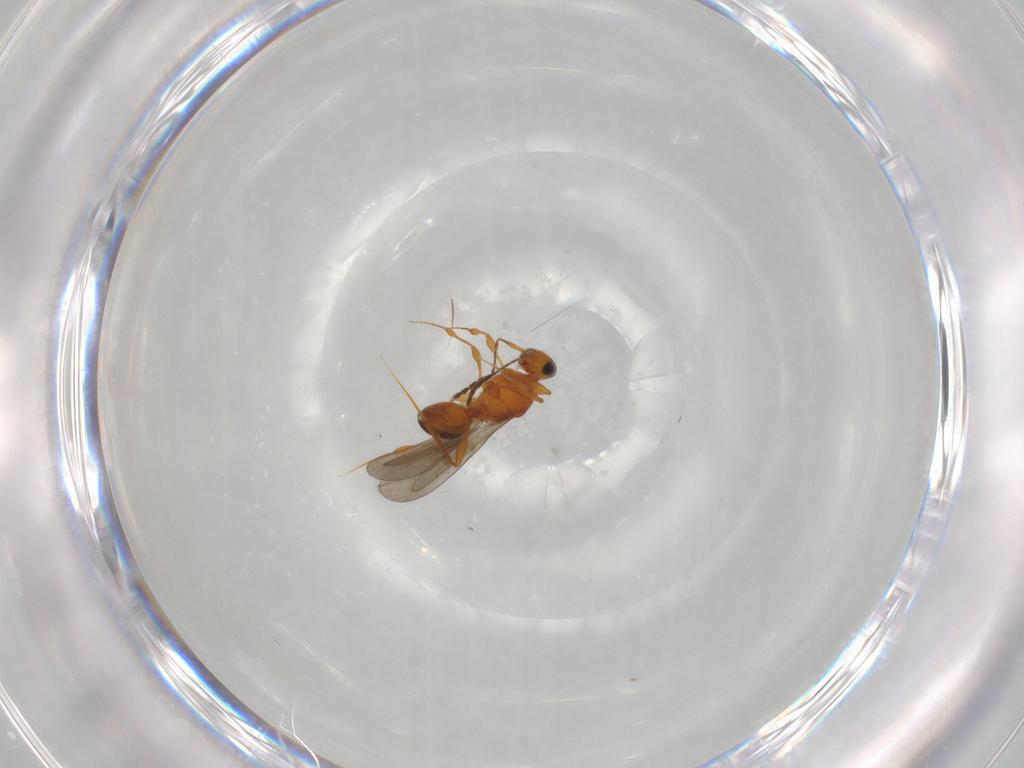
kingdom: Animalia
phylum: Arthropoda
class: Insecta
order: Hymenoptera
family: Platygastridae
